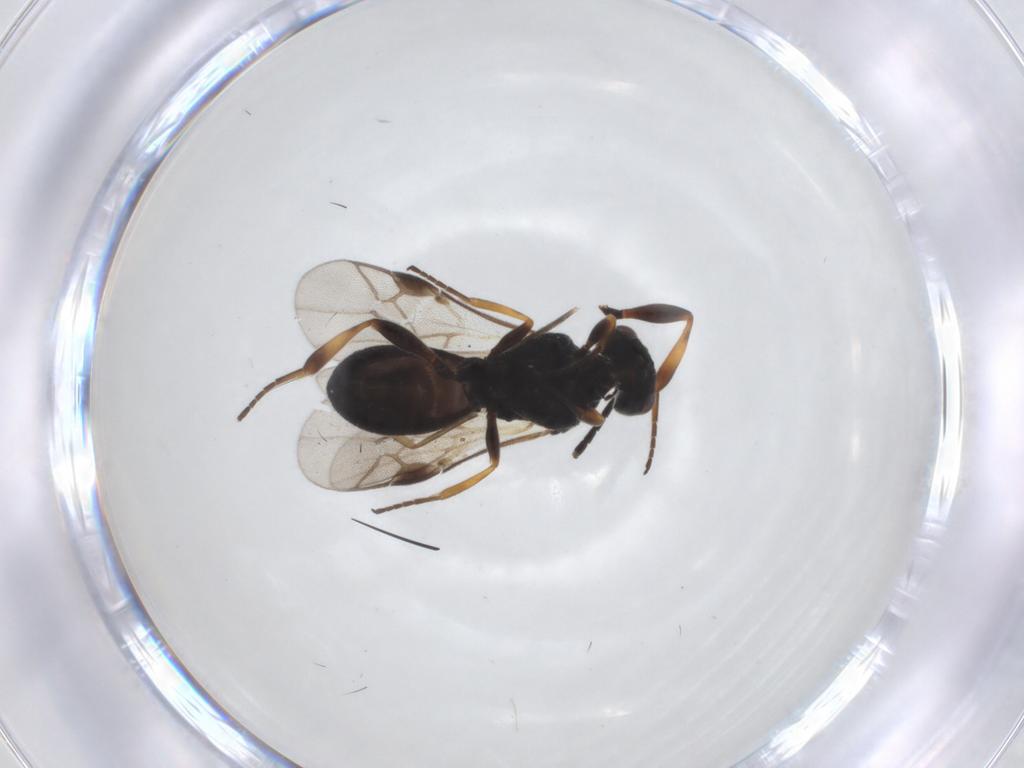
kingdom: Animalia
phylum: Arthropoda
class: Insecta
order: Hymenoptera
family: Braconidae
